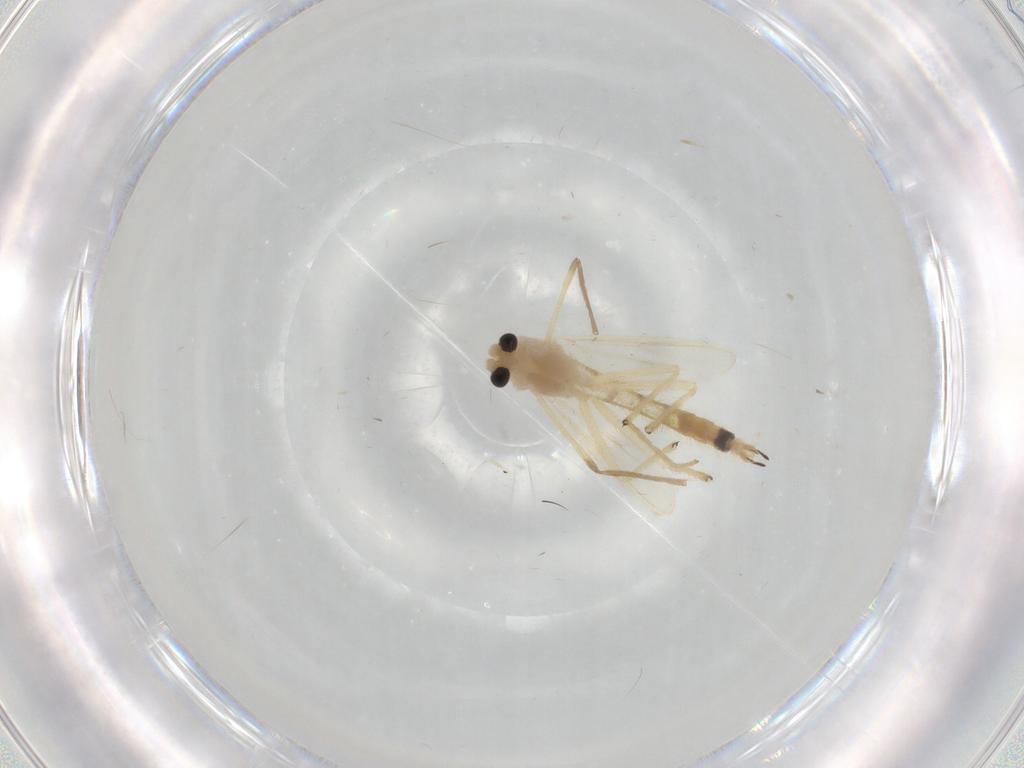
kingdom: Animalia
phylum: Arthropoda
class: Insecta
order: Diptera
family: Chironomidae
